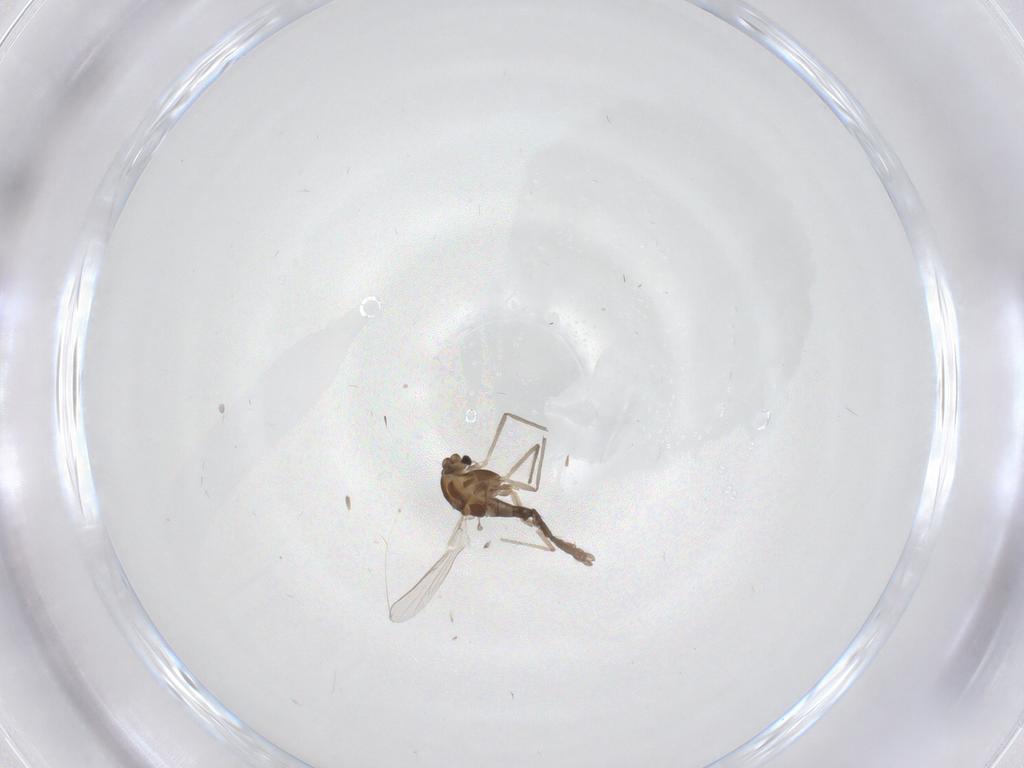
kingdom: Animalia
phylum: Arthropoda
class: Insecta
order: Diptera
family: Chironomidae
